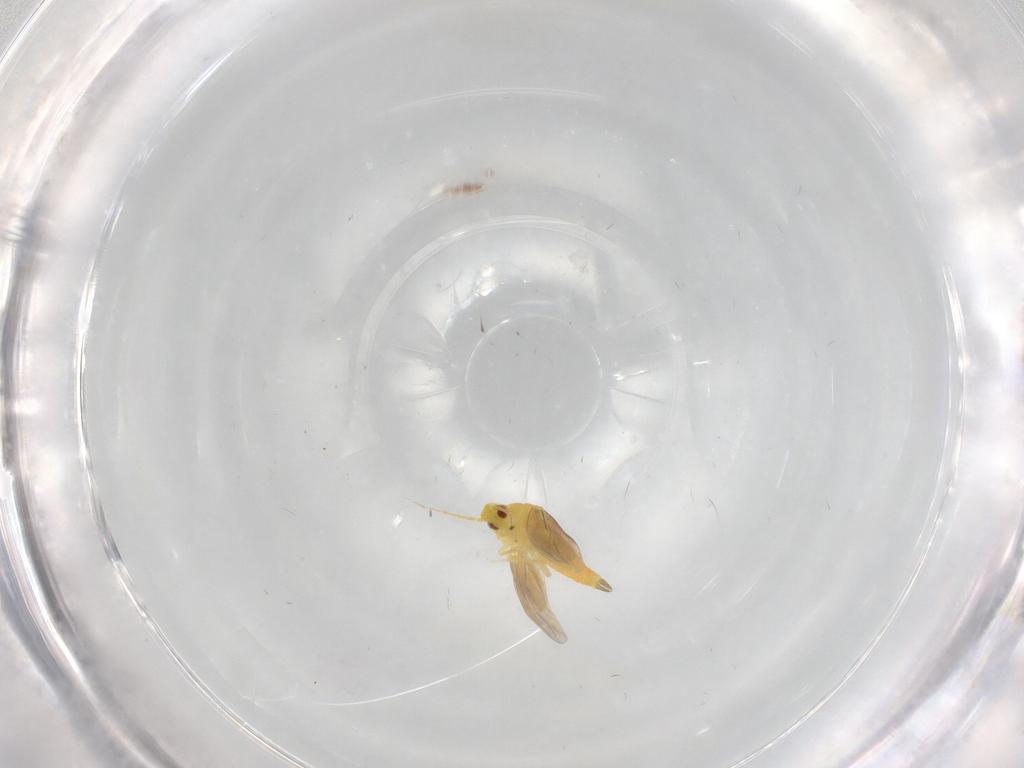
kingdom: Animalia
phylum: Arthropoda
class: Insecta
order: Hemiptera
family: Aleyrodidae
